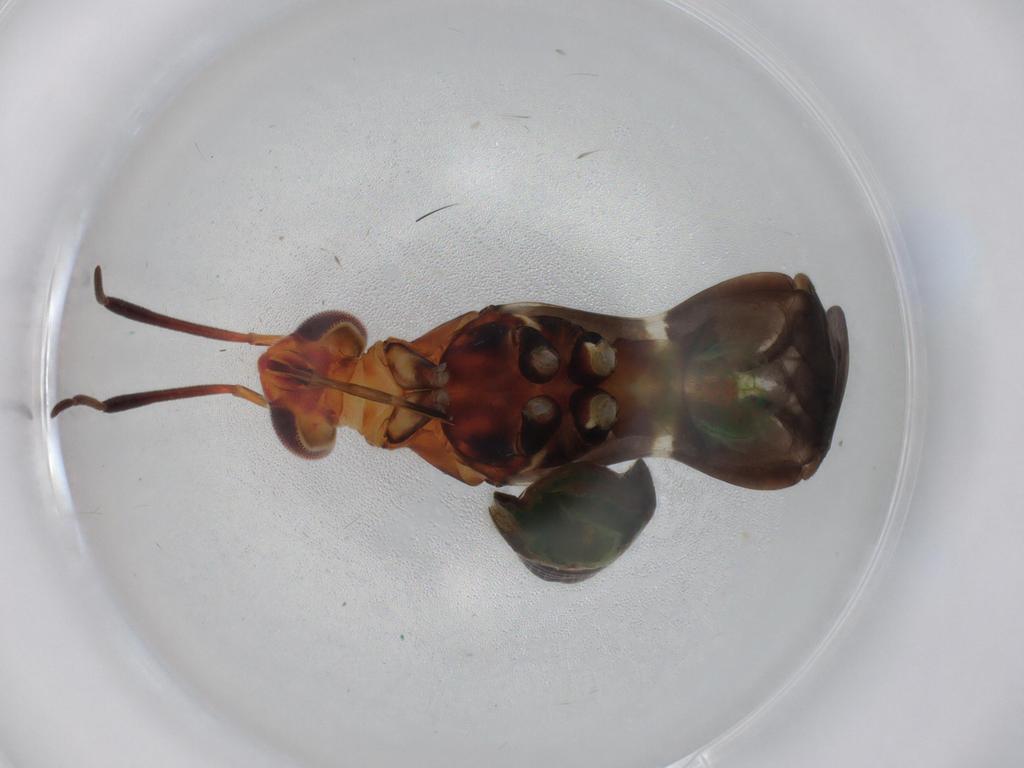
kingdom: Animalia
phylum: Arthropoda
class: Insecta
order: Hemiptera
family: Miridae
